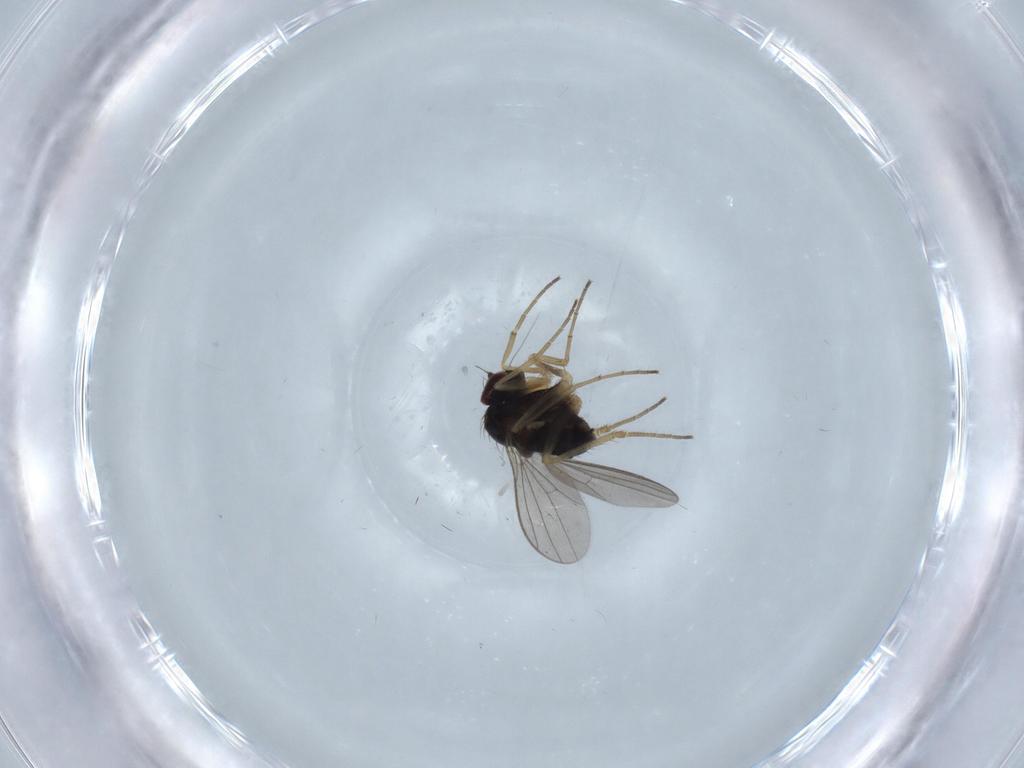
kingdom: Animalia
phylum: Arthropoda
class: Insecta
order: Diptera
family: Dolichopodidae
